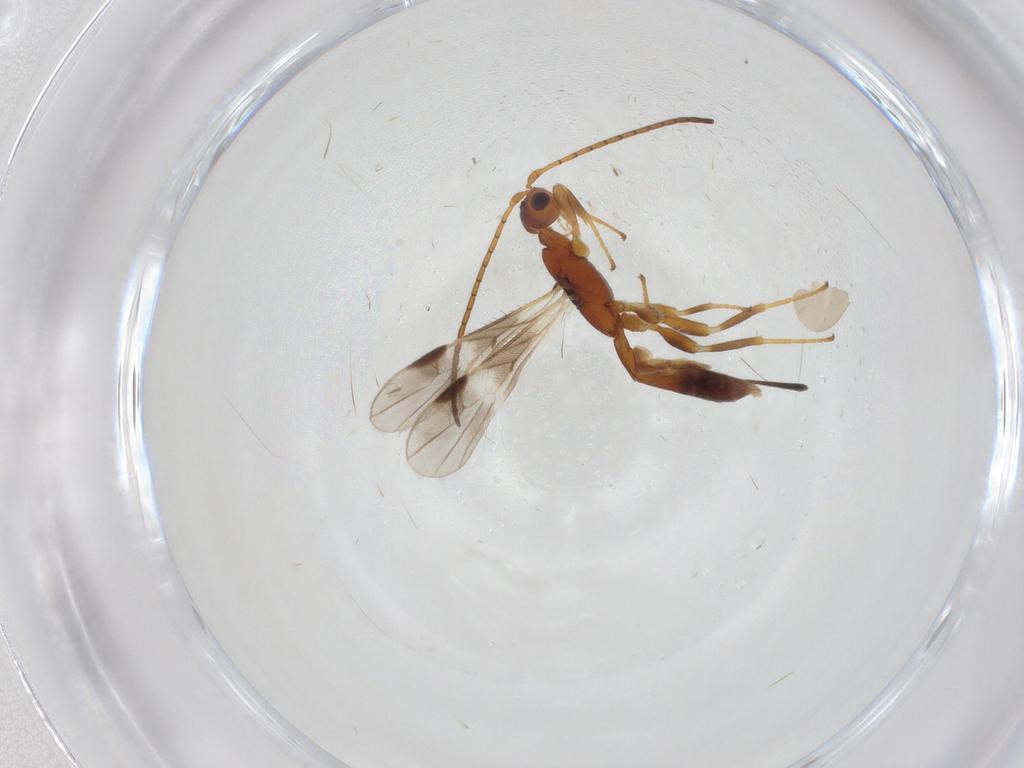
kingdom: Animalia
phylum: Arthropoda
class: Insecta
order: Hymenoptera
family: Braconidae
